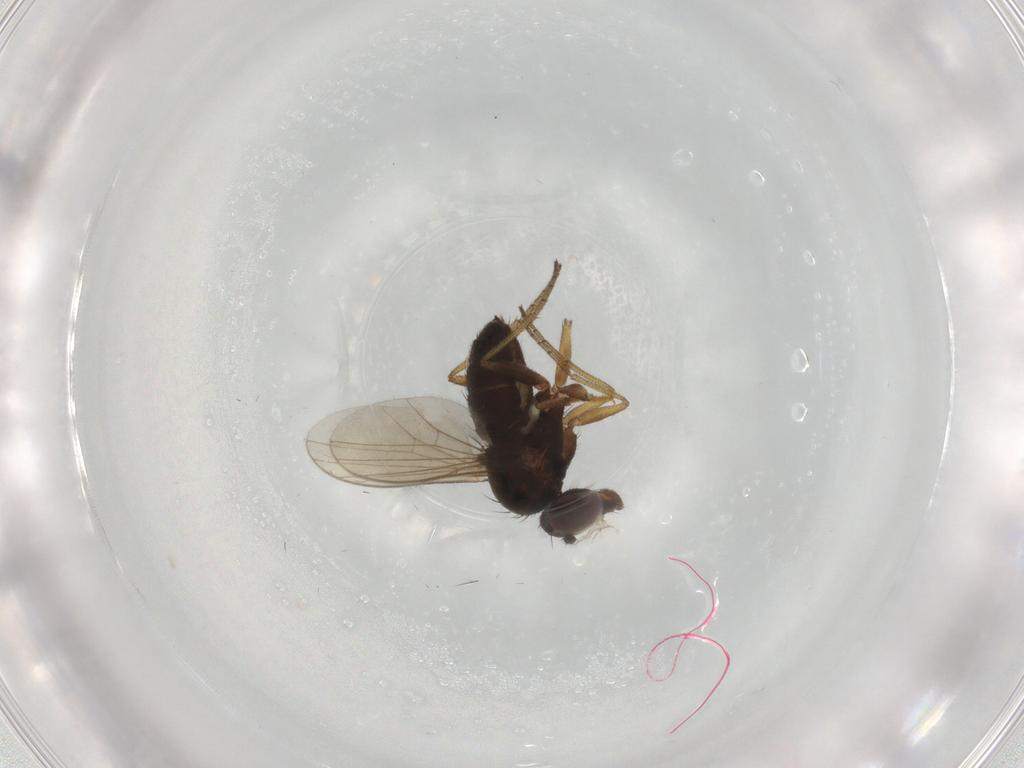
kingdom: Animalia
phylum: Arthropoda
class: Insecta
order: Diptera
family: Dolichopodidae
